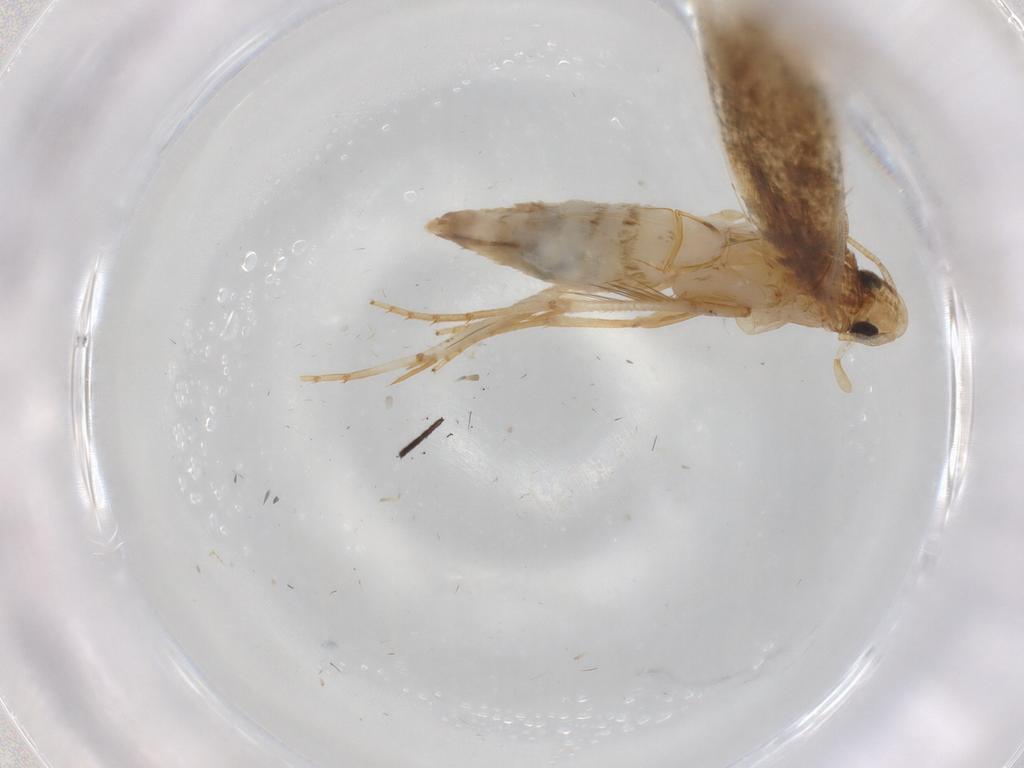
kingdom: Animalia
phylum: Arthropoda
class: Insecta
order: Lepidoptera
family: Tineidae
